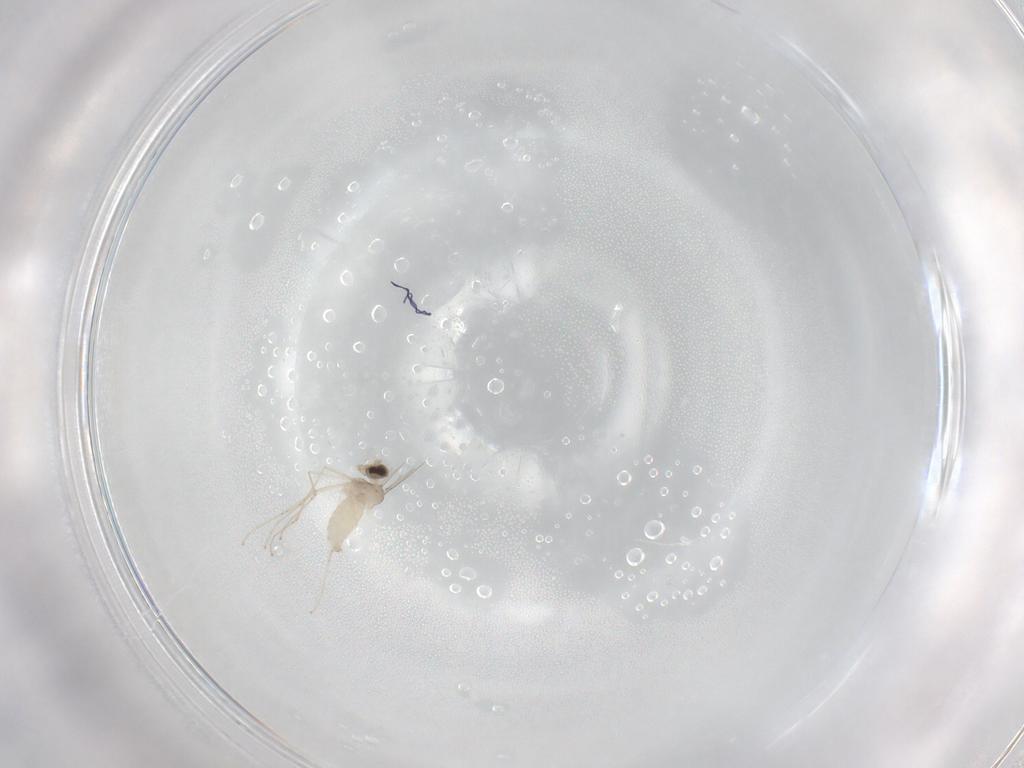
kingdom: Animalia
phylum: Arthropoda
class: Insecta
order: Diptera
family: Phoridae
